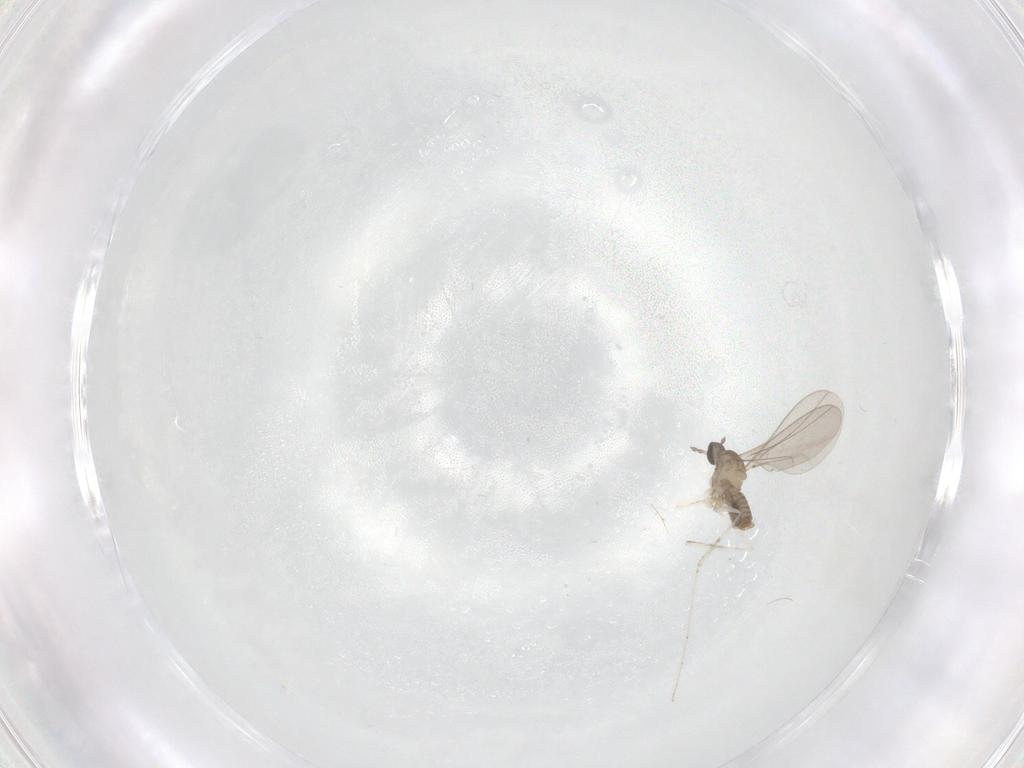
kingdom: Animalia
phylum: Arthropoda
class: Insecta
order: Diptera
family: Cecidomyiidae
